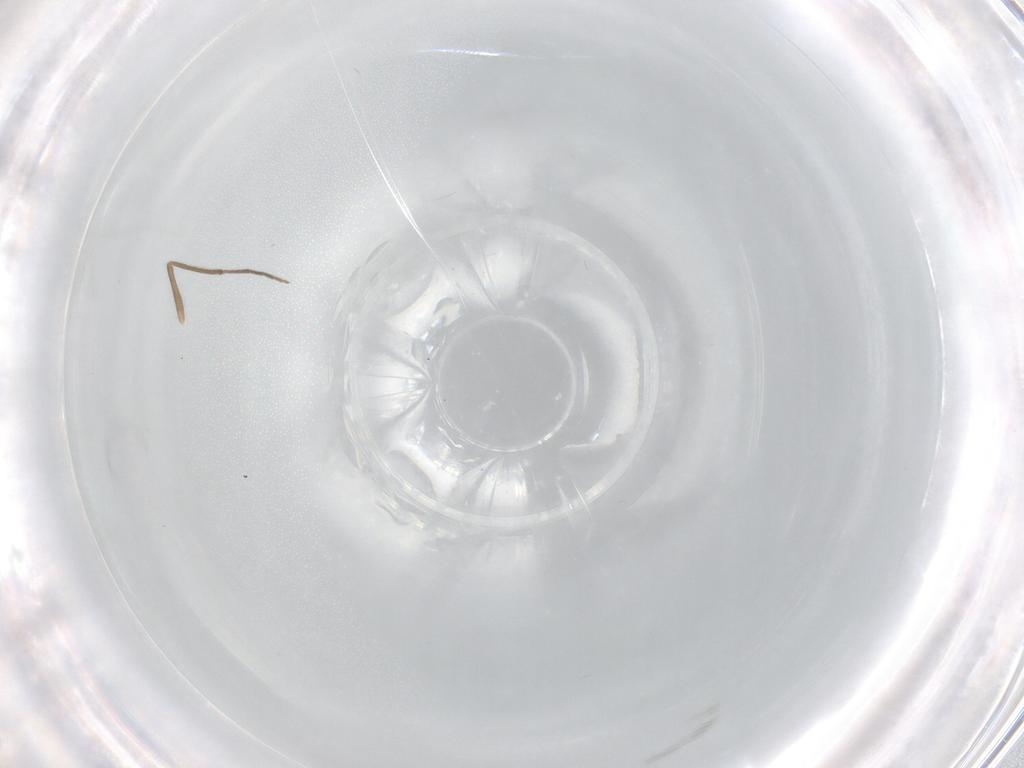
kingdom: Animalia
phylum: Arthropoda
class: Insecta
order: Diptera
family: Chironomidae
